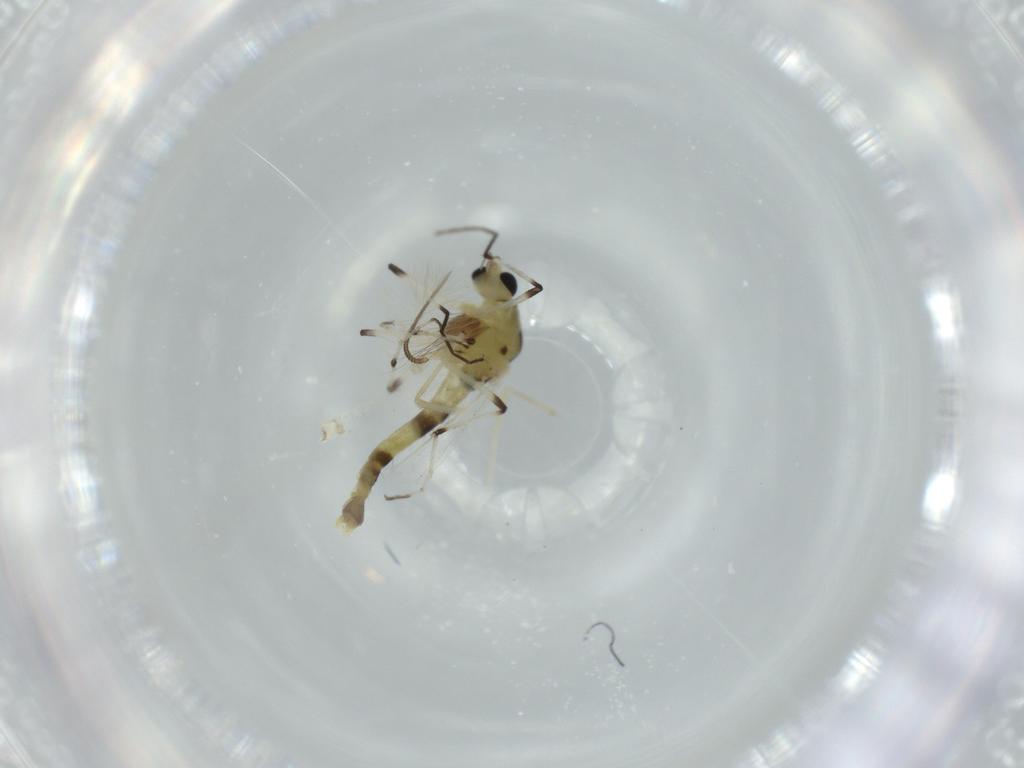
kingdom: Animalia
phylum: Arthropoda
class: Insecta
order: Diptera
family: Chironomidae
